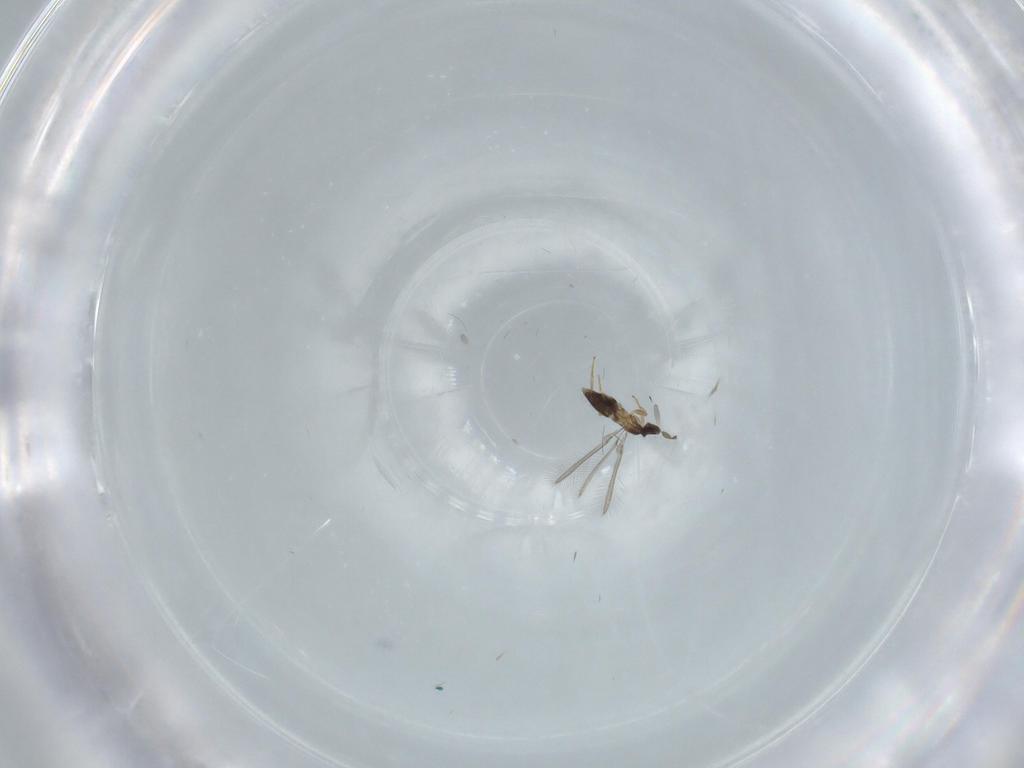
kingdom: Animalia
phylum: Arthropoda
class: Insecta
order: Hymenoptera
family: Mymaridae
